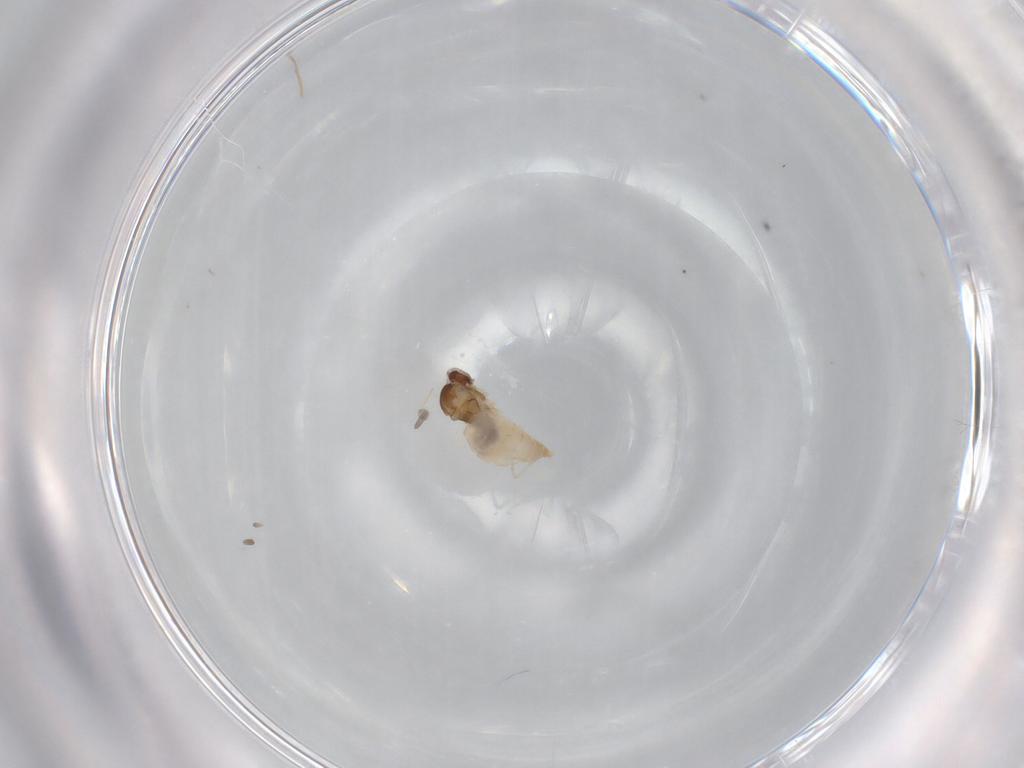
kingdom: Animalia
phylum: Arthropoda
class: Insecta
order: Diptera
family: Cecidomyiidae
